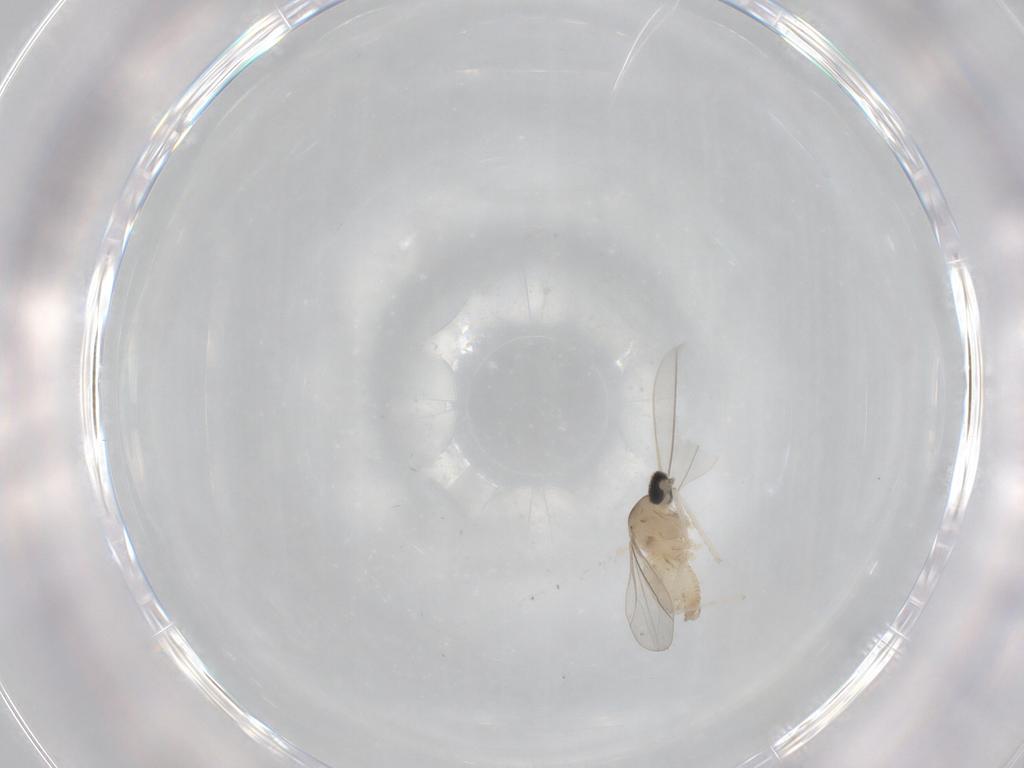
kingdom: Animalia
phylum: Arthropoda
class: Insecta
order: Diptera
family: Cecidomyiidae
